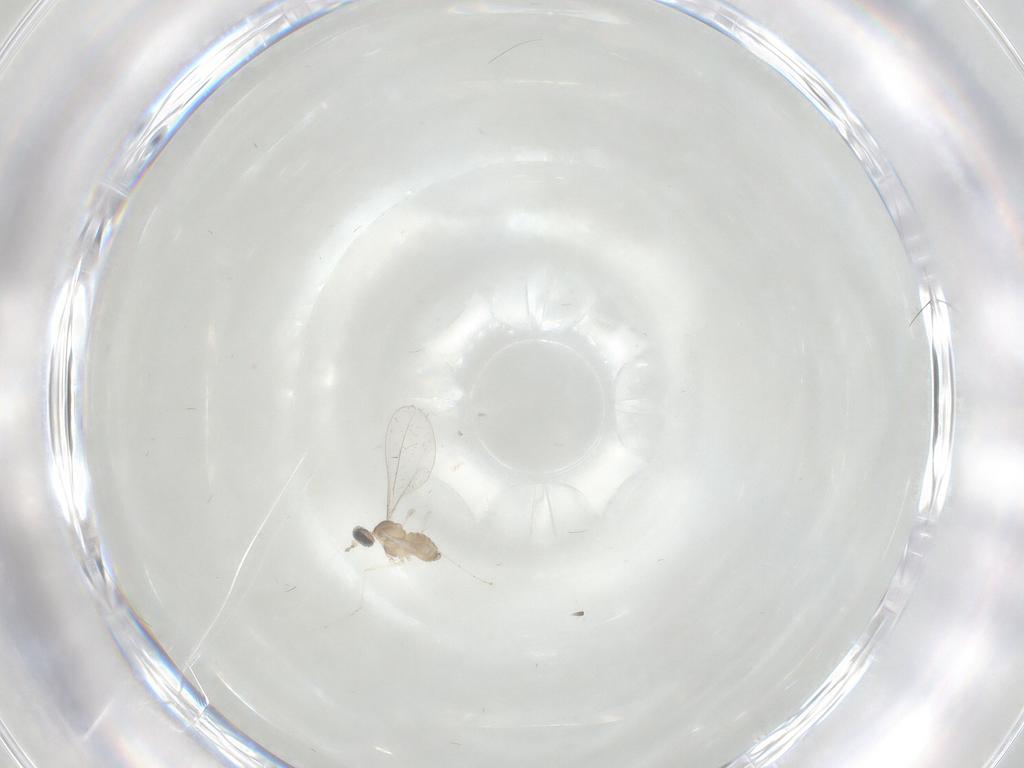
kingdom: Animalia
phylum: Arthropoda
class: Insecta
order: Diptera
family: Cecidomyiidae
